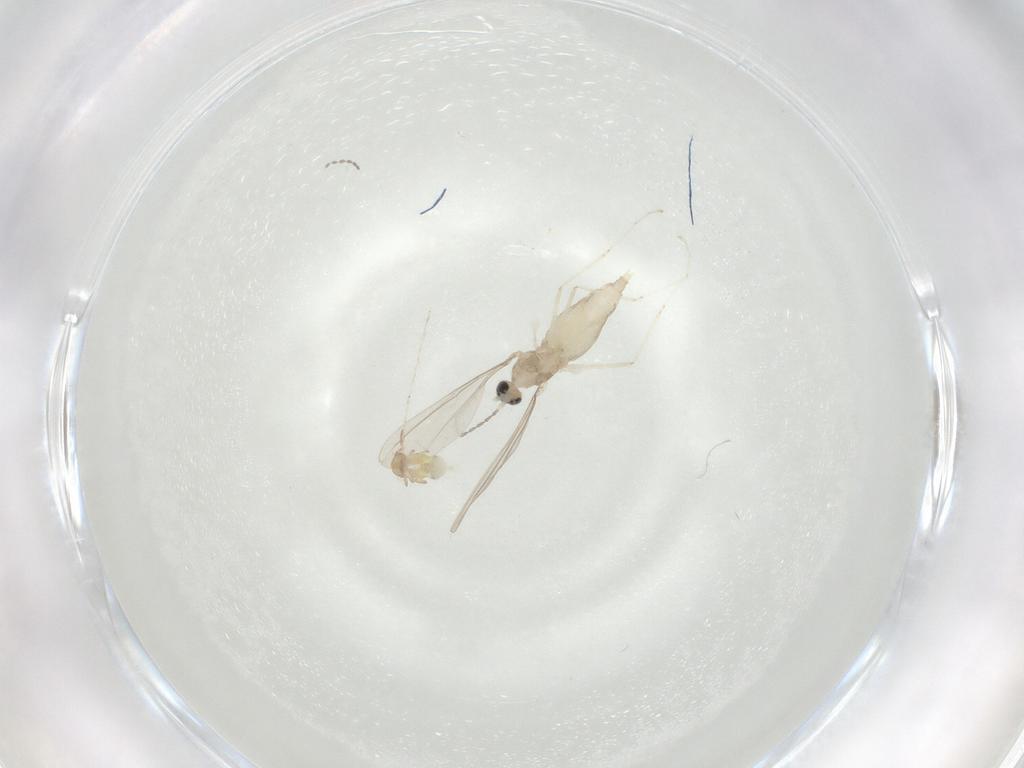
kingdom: Animalia
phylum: Arthropoda
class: Insecta
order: Diptera
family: Cecidomyiidae
